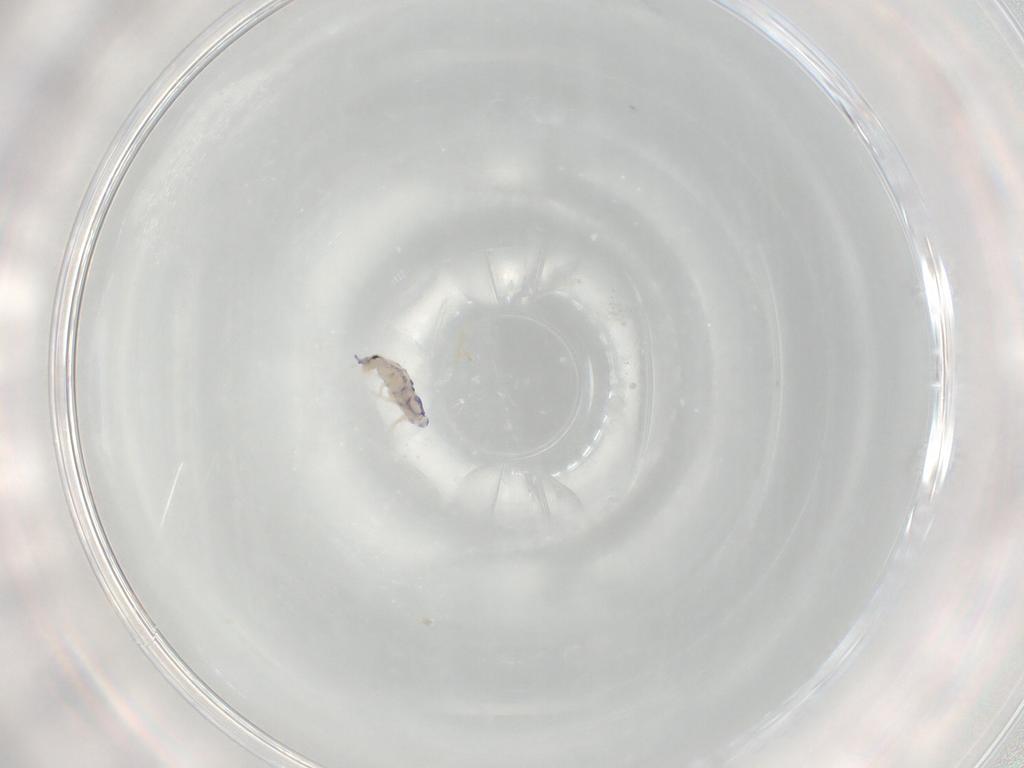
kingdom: Animalia
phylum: Arthropoda
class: Collembola
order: Entomobryomorpha
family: Entomobryidae
